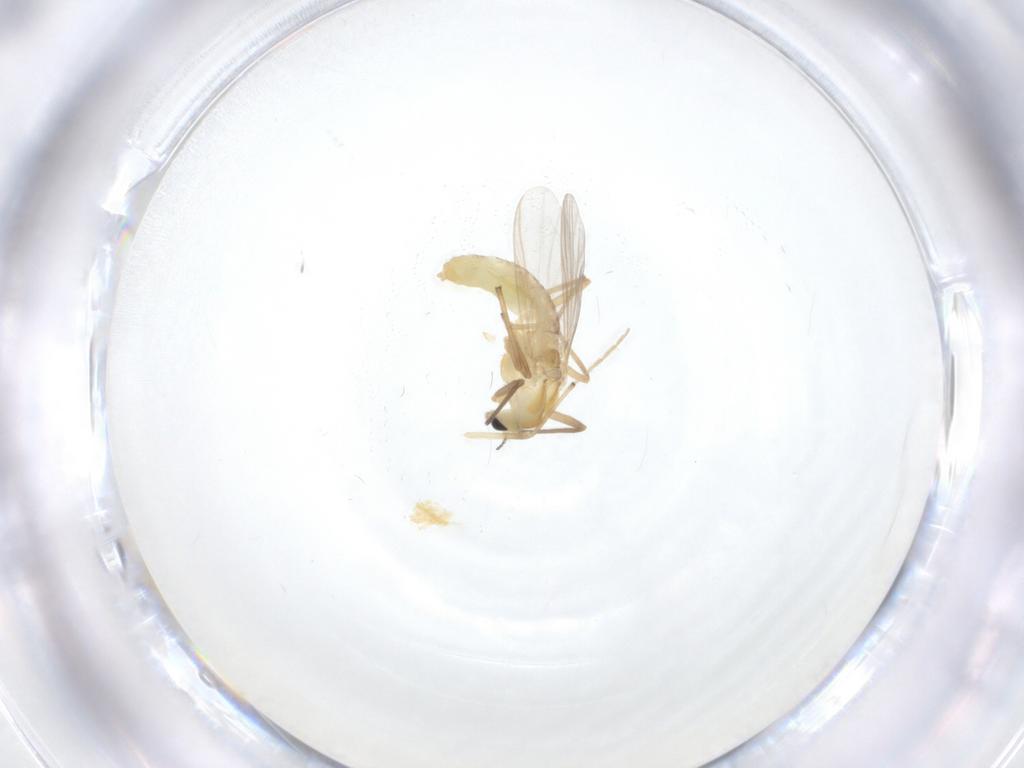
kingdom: Animalia
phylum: Arthropoda
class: Insecta
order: Diptera
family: Chironomidae
